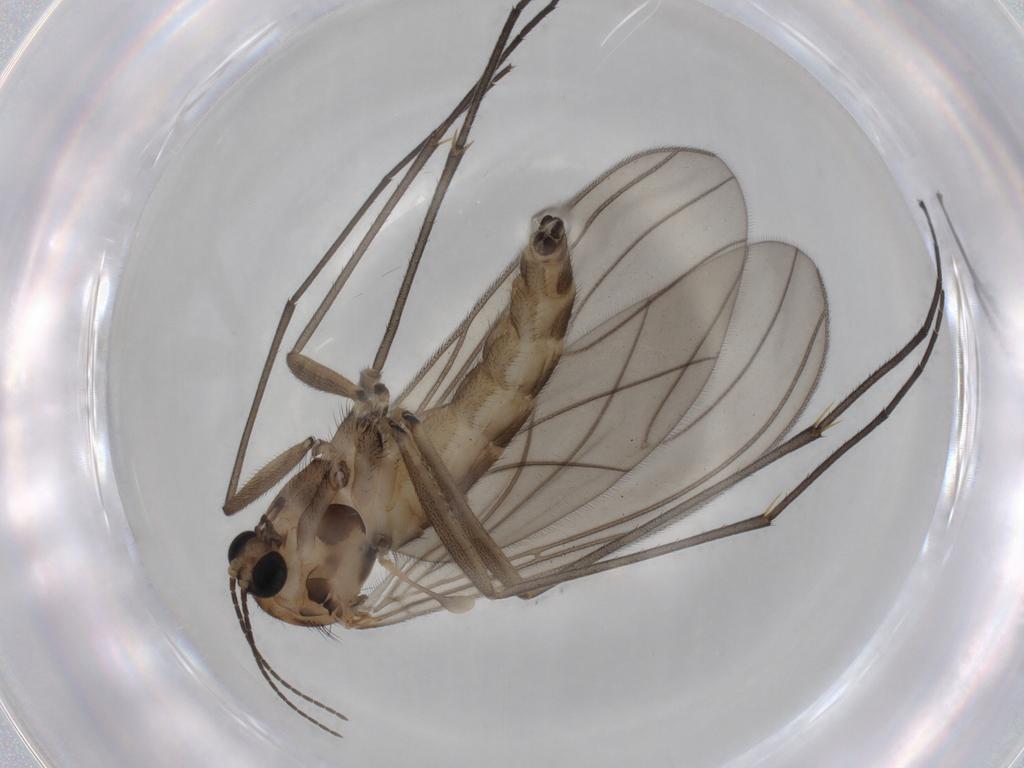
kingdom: Animalia
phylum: Arthropoda
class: Insecta
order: Diptera
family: Sciaridae
